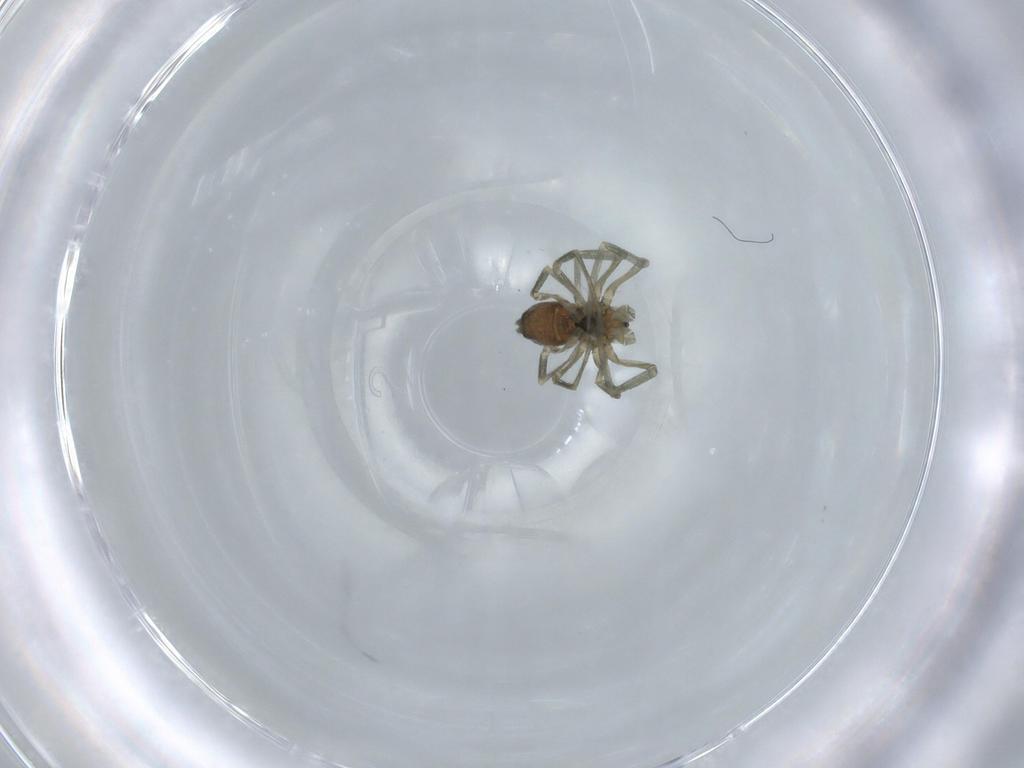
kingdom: Animalia
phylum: Arthropoda
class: Arachnida
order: Araneae
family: Linyphiidae
